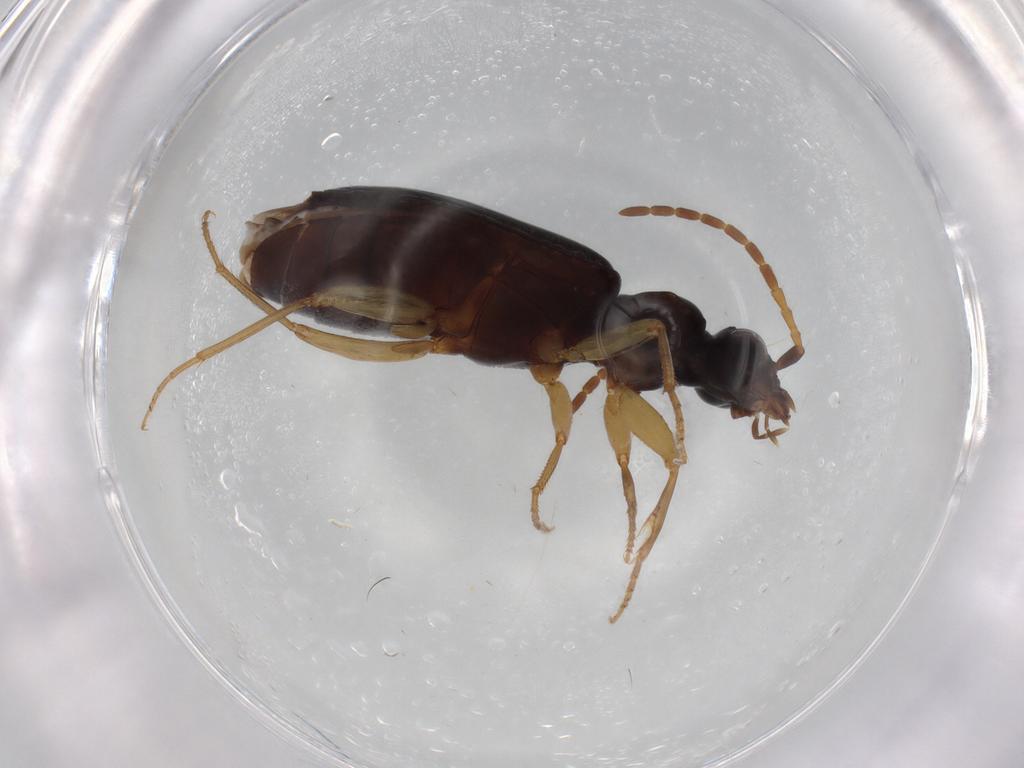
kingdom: Animalia
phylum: Arthropoda
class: Insecta
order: Coleoptera
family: Carabidae
